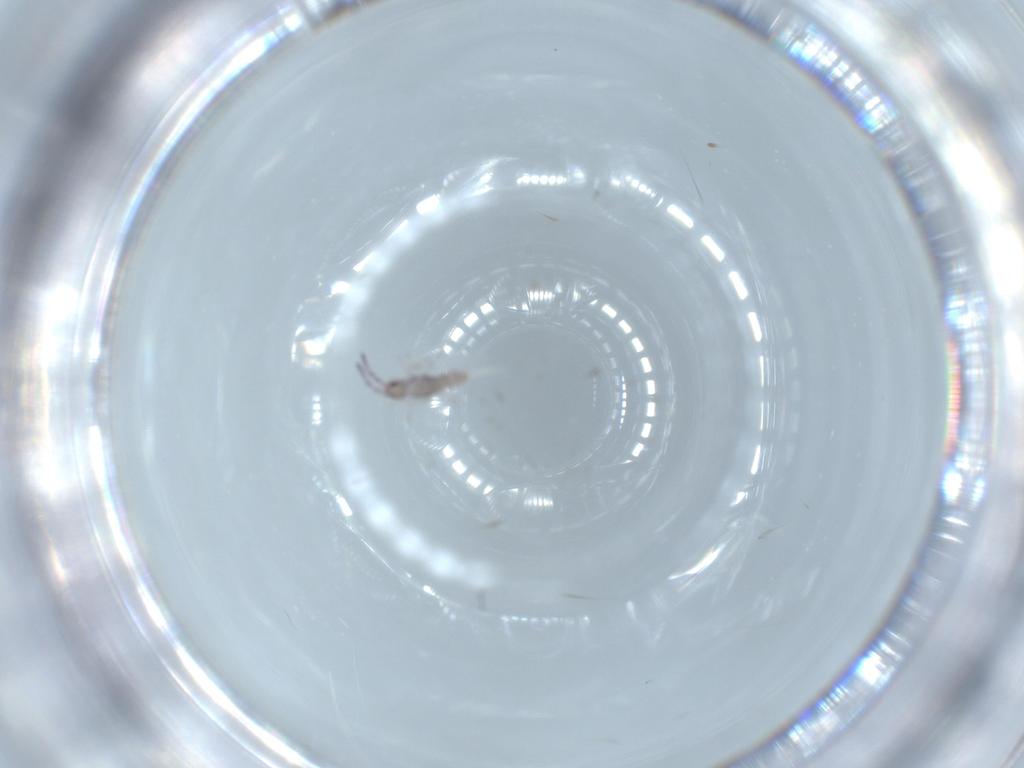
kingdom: Animalia
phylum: Arthropoda
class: Collembola
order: Entomobryomorpha
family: Entomobryidae
